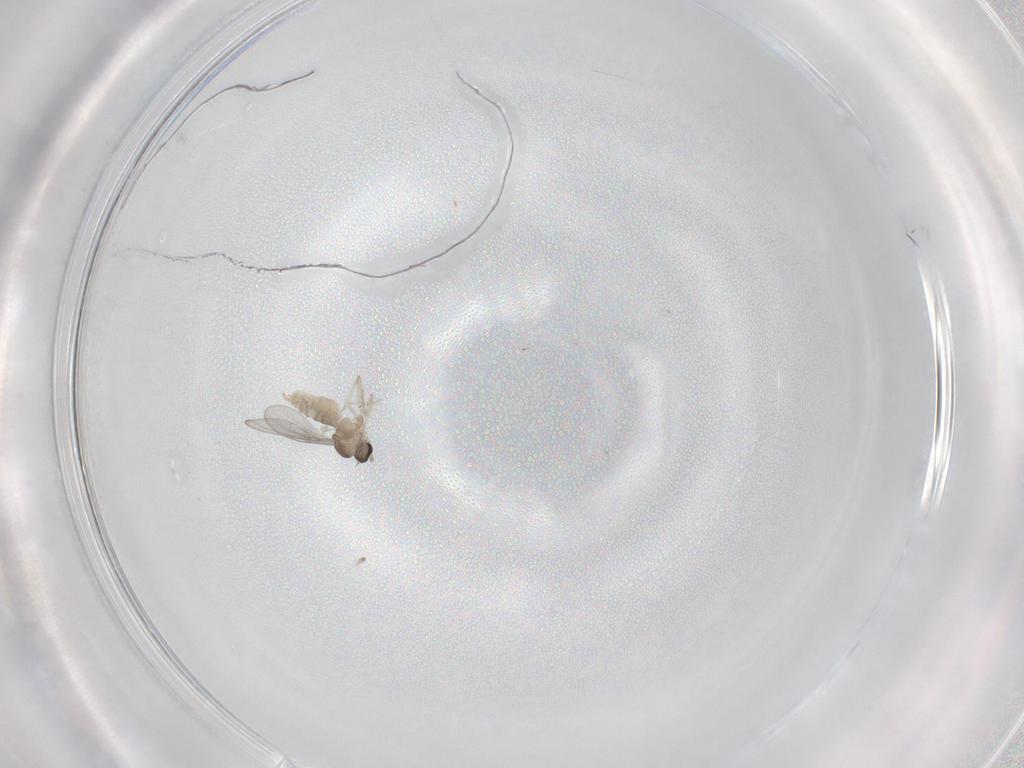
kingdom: Animalia
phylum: Arthropoda
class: Insecta
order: Diptera
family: Cecidomyiidae
